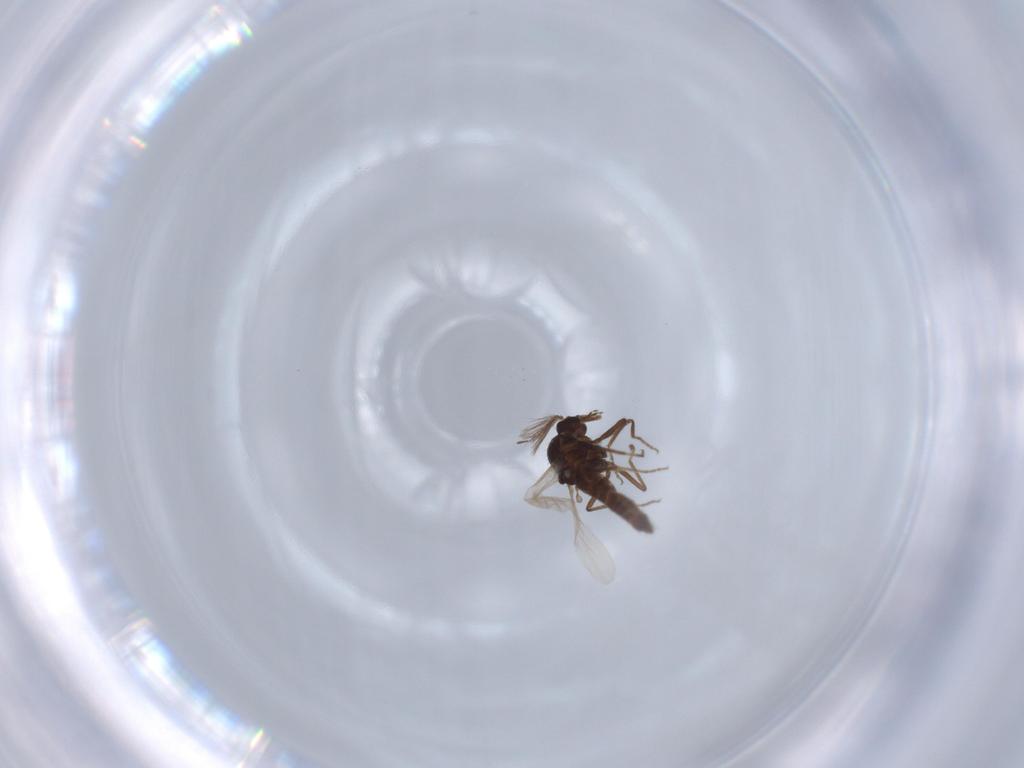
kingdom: Animalia
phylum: Arthropoda
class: Insecta
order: Diptera
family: Ceratopogonidae
